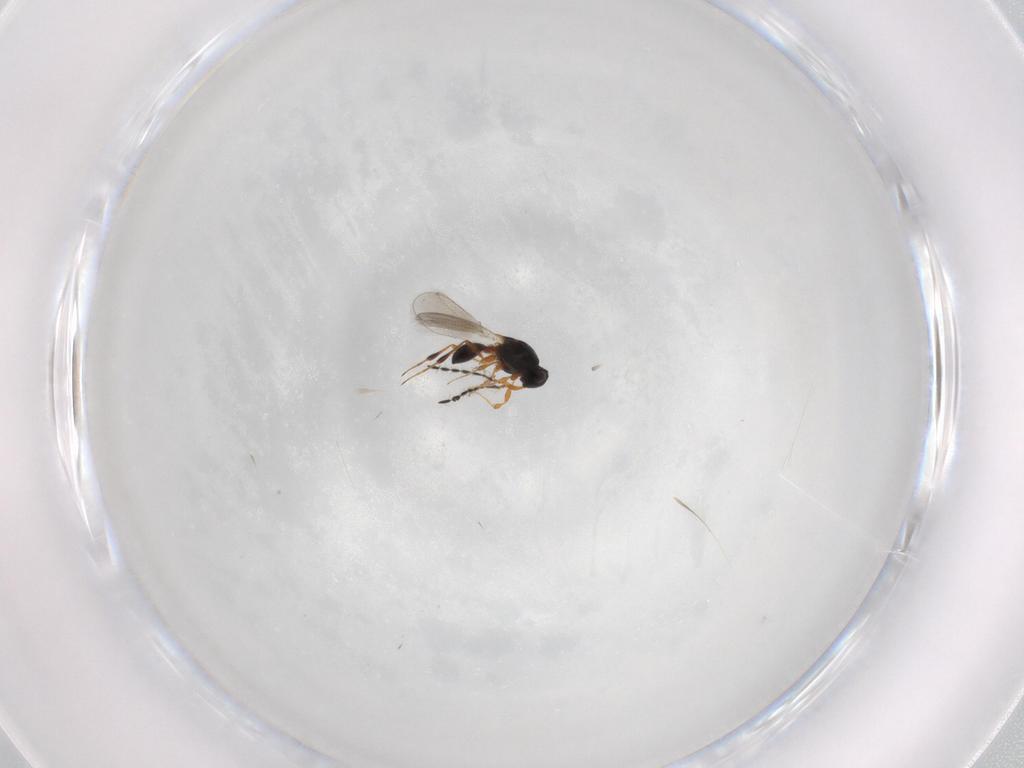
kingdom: Animalia
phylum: Arthropoda
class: Insecta
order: Hymenoptera
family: Platygastridae
